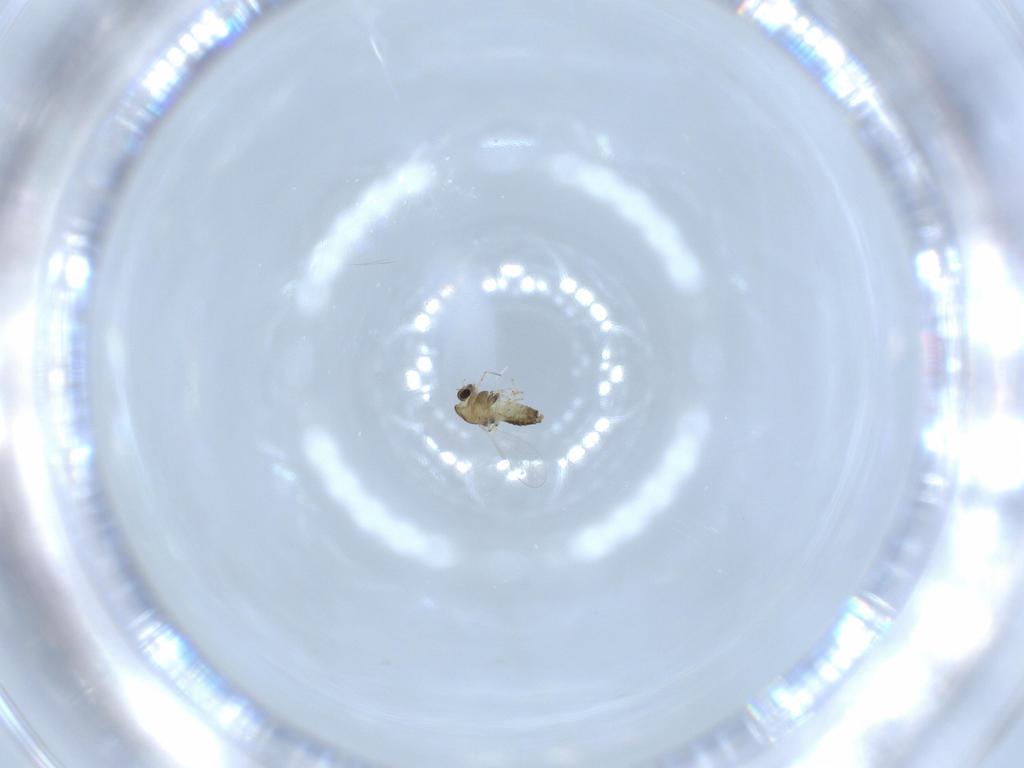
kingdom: Animalia
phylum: Arthropoda
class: Insecta
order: Diptera
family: Chironomidae
